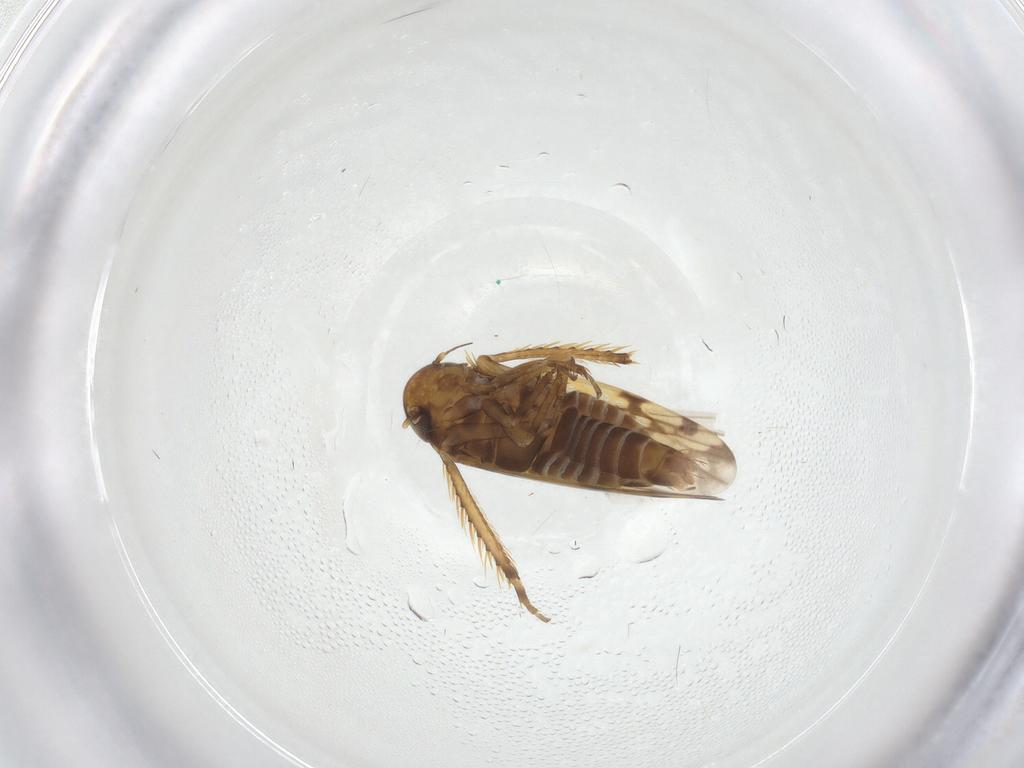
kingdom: Animalia
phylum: Arthropoda
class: Insecta
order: Hemiptera
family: Cicadellidae
